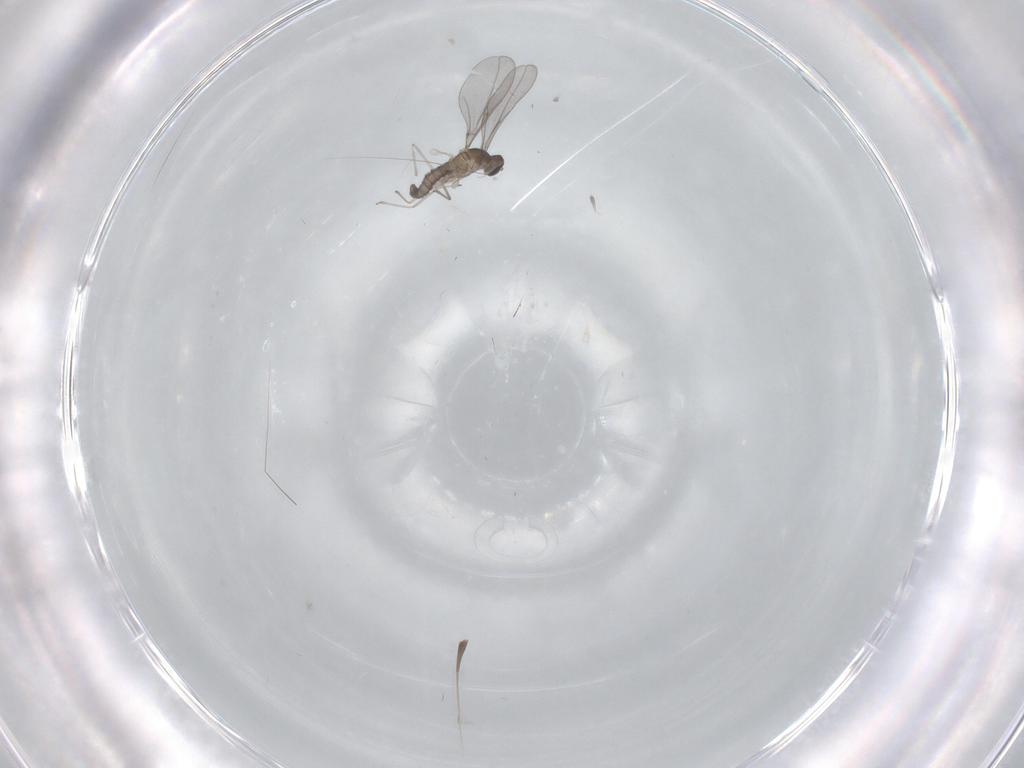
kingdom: Animalia
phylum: Arthropoda
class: Insecta
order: Diptera
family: Cecidomyiidae
